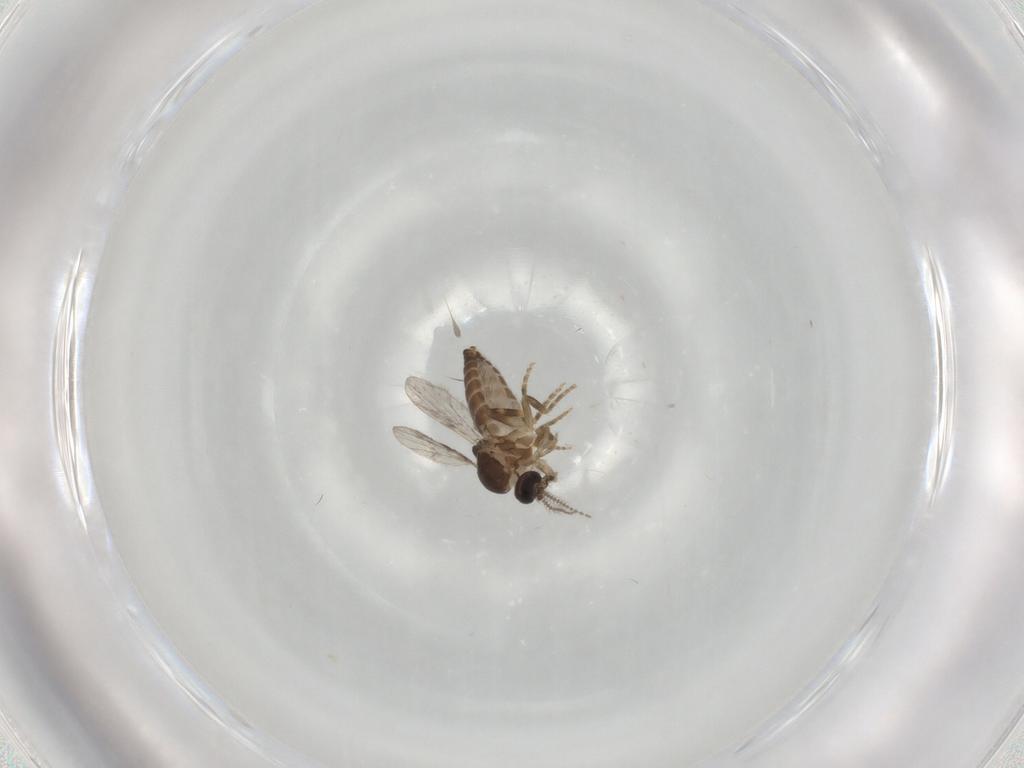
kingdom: Animalia
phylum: Arthropoda
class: Insecta
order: Diptera
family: Ceratopogonidae
